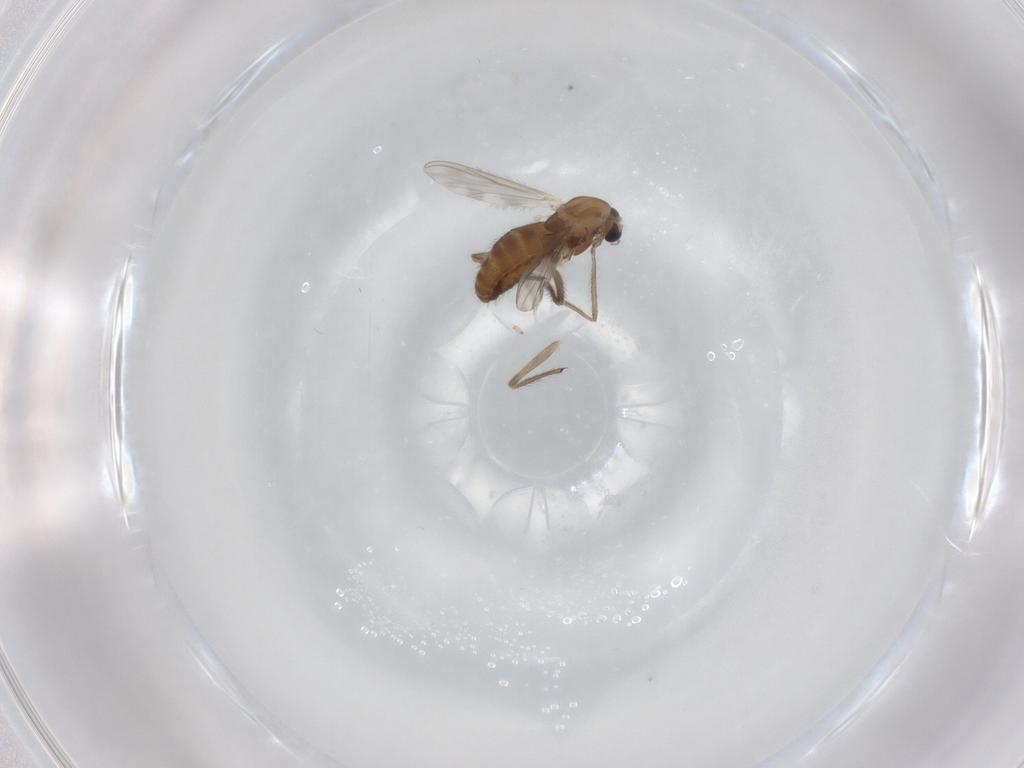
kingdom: Animalia
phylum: Arthropoda
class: Insecta
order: Diptera
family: Chironomidae
